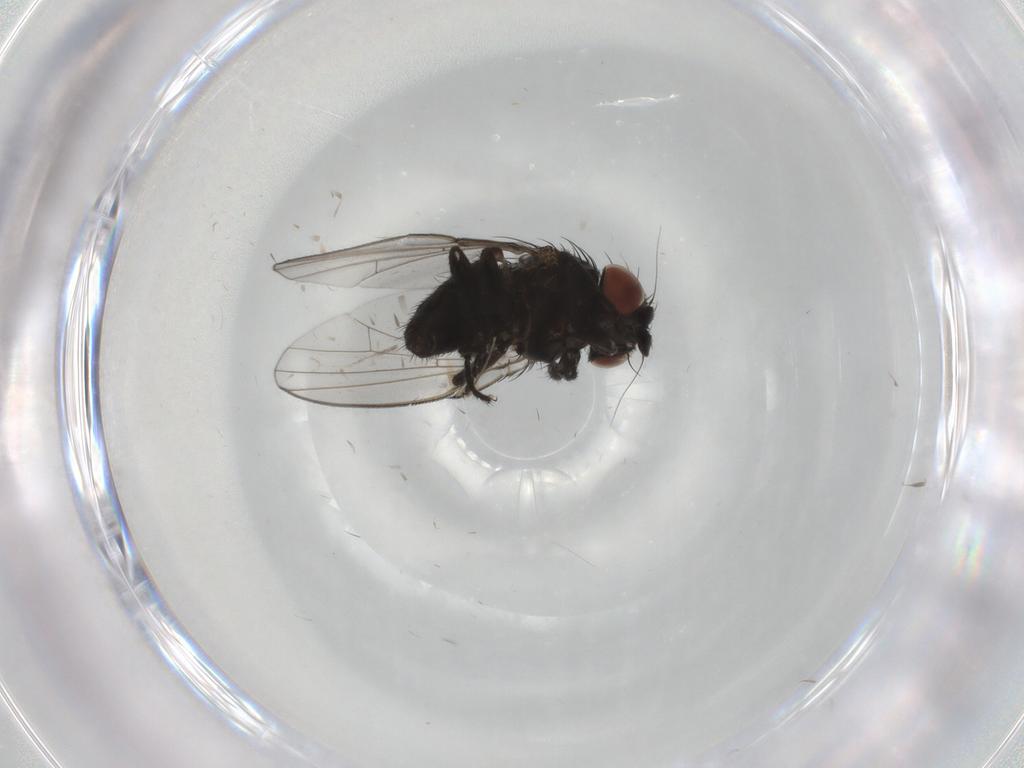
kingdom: Animalia
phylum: Arthropoda
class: Insecta
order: Diptera
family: Milichiidae
